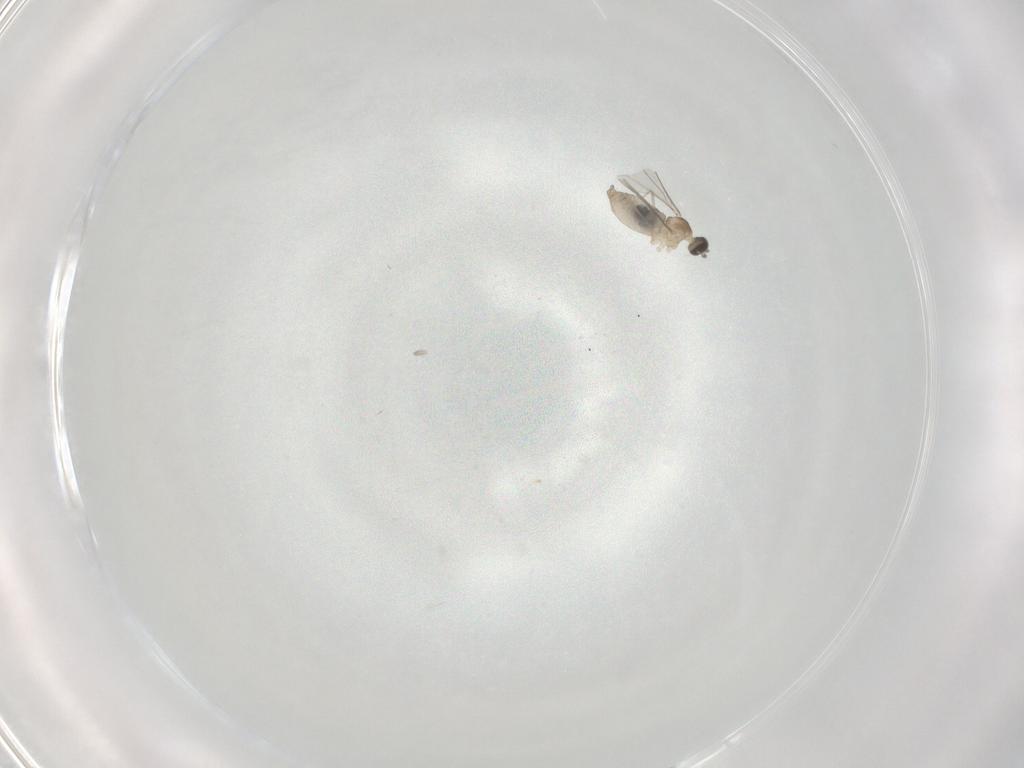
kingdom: Animalia
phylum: Arthropoda
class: Insecta
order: Diptera
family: Cecidomyiidae
